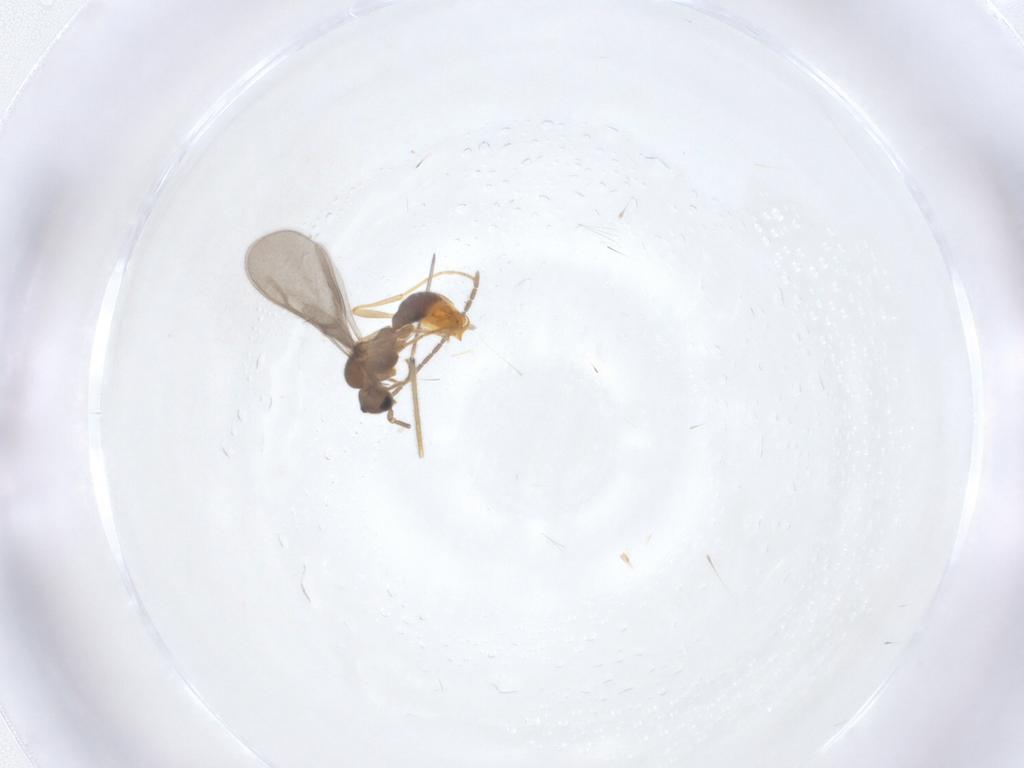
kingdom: Animalia
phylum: Arthropoda
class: Insecta
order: Hymenoptera
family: Formicidae
